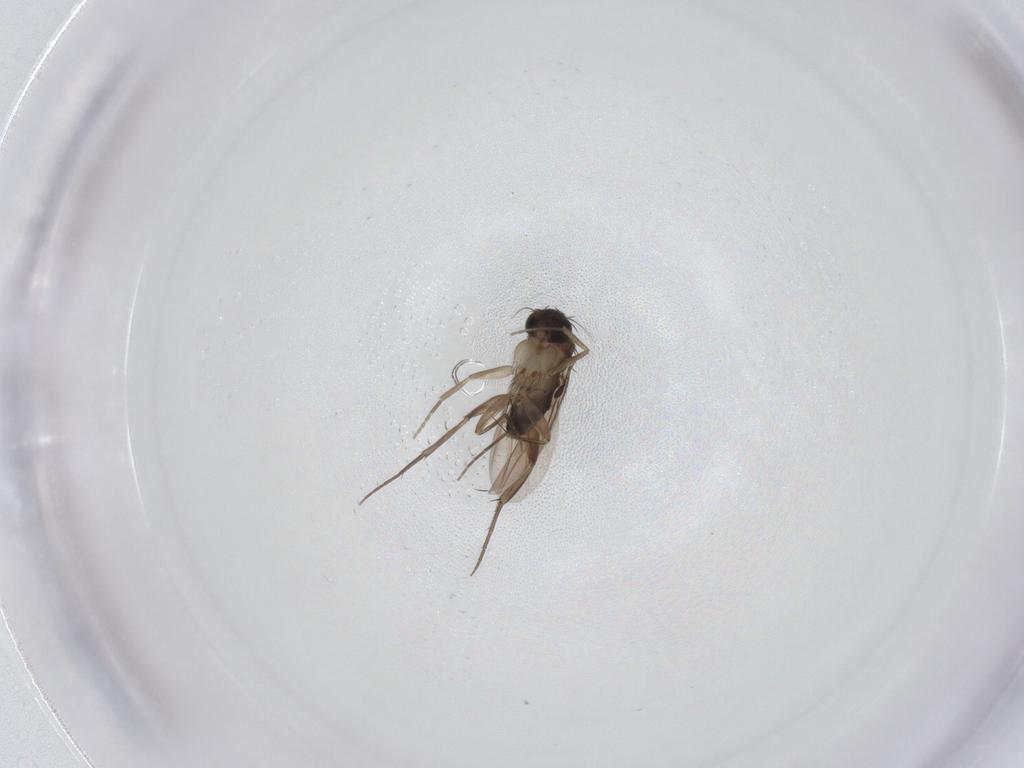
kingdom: Animalia
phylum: Arthropoda
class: Insecta
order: Diptera
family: Phoridae
